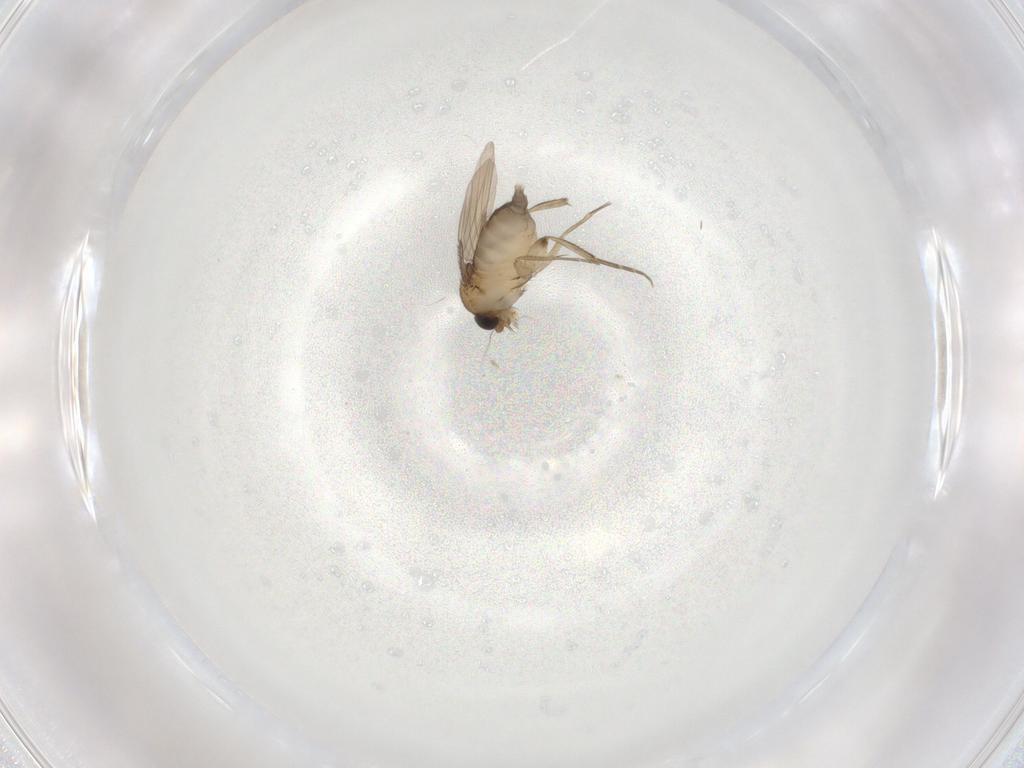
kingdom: Animalia
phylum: Arthropoda
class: Insecta
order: Diptera
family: Phoridae
